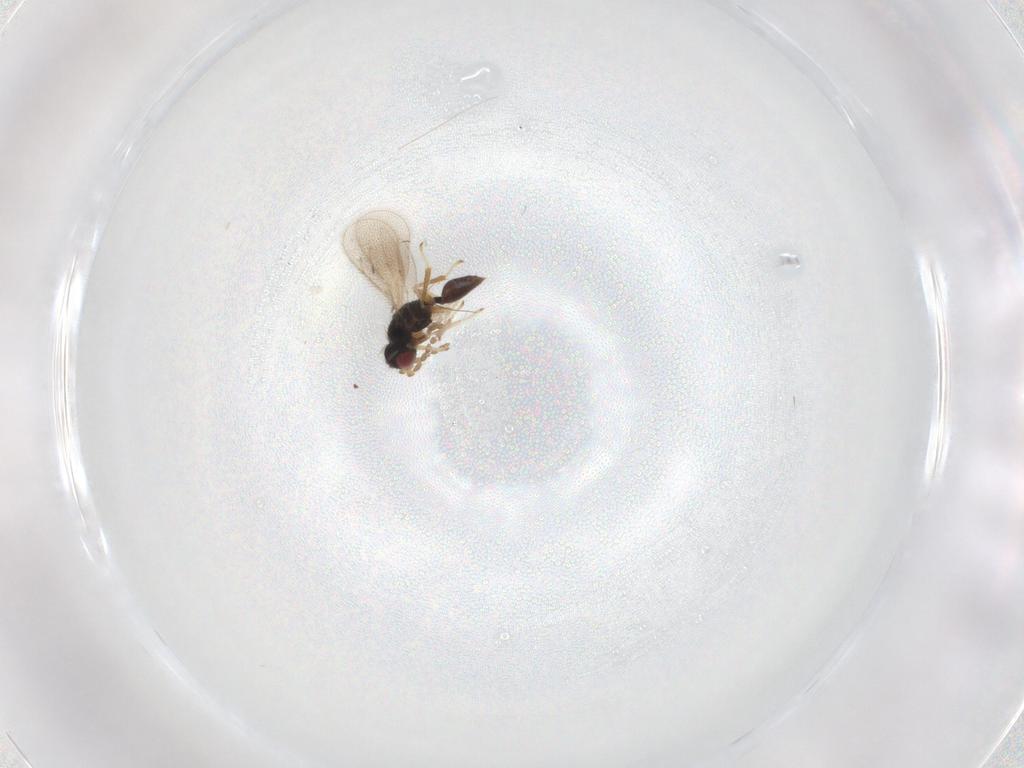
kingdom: Animalia
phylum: Arthropoda
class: Insecta
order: Hymenoptera
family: Eulophidae
